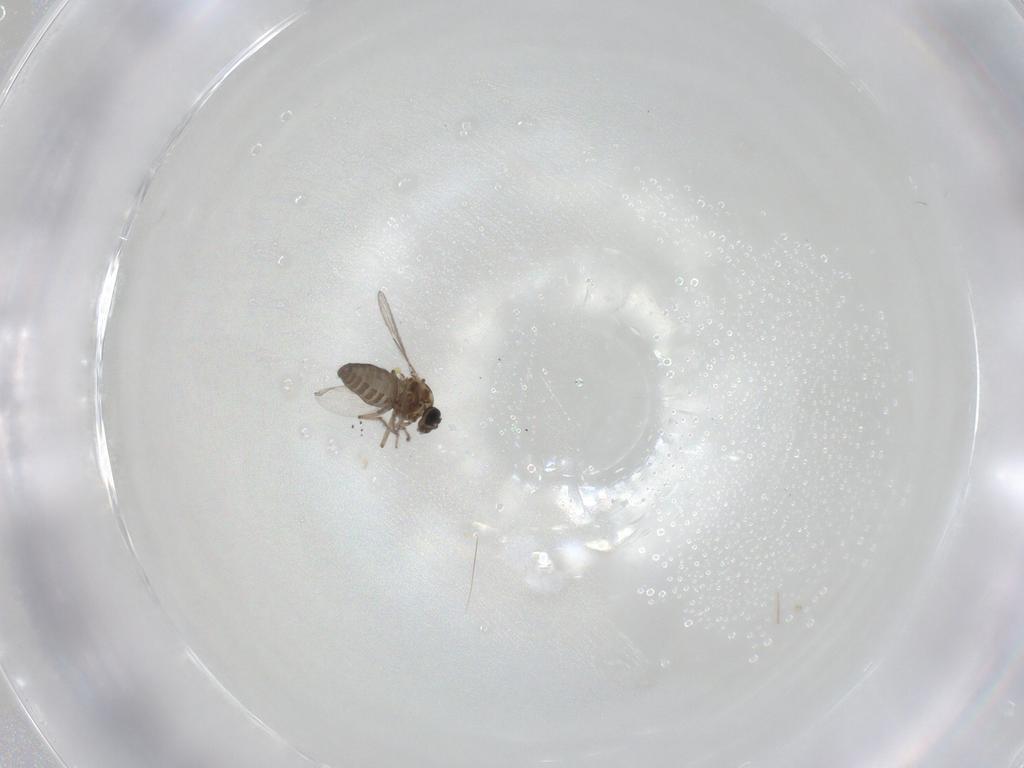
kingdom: Animalia
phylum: Arthropoda
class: Insecta
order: Diptera
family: Ceratopogonidae
